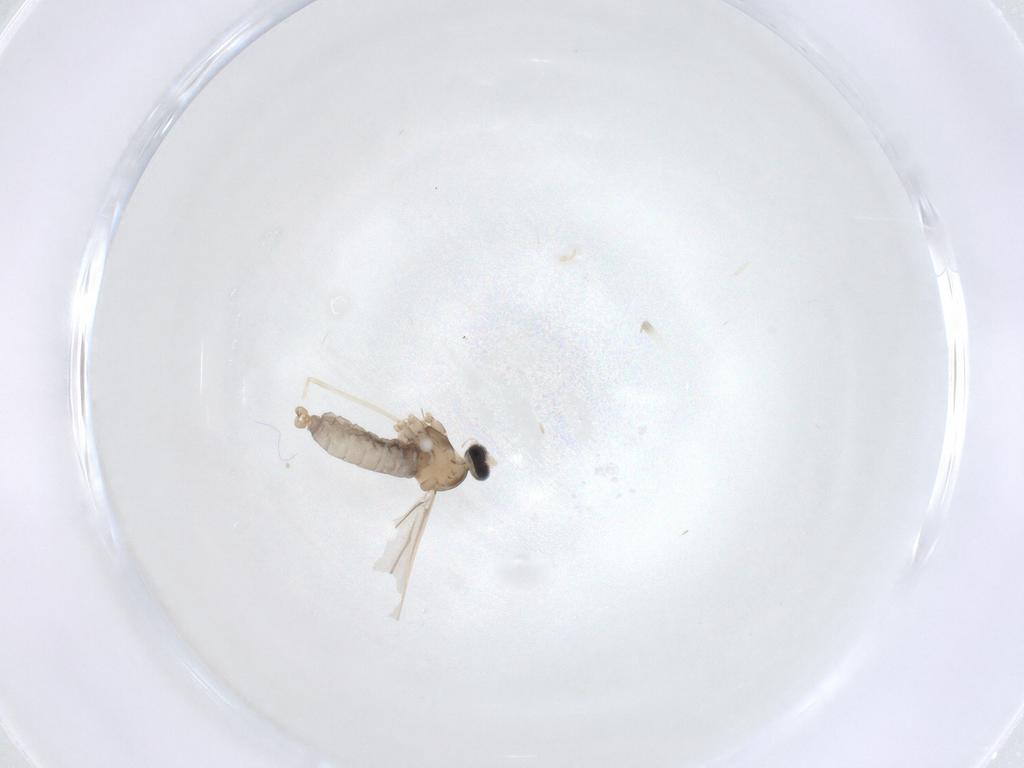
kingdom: Animalia
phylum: Arthropoda
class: Insecta
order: Diptera
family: Cecidomyiidae
